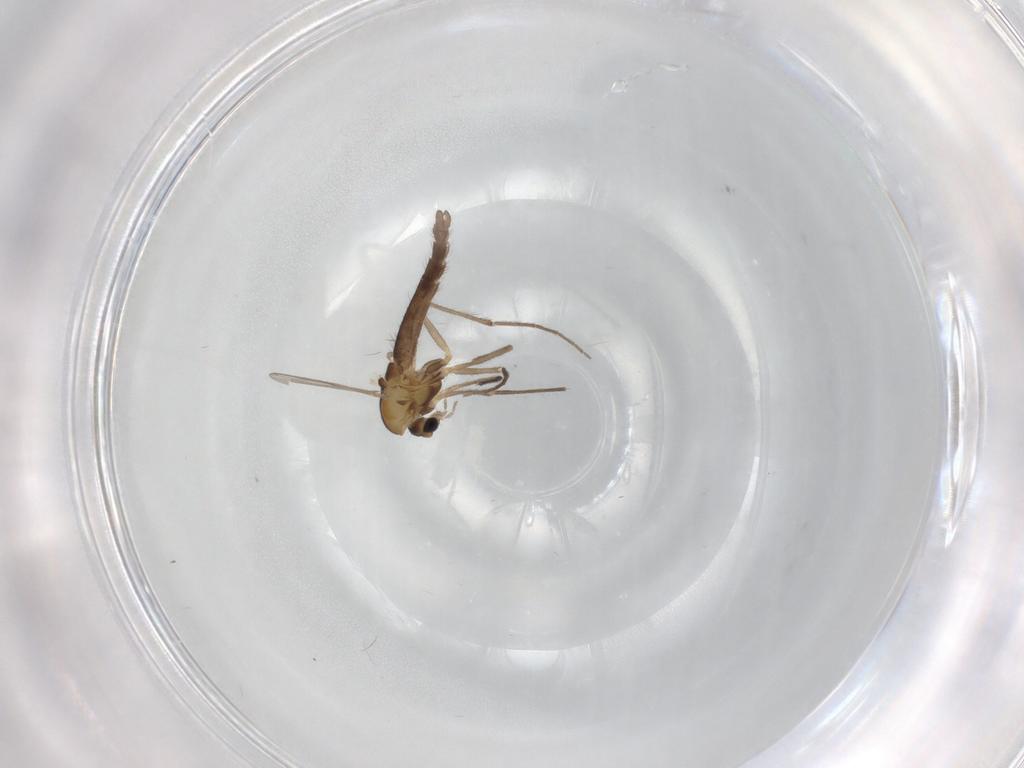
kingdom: Animalia
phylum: Arthropoda
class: Insecta
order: Diptera
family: Chironomidae
